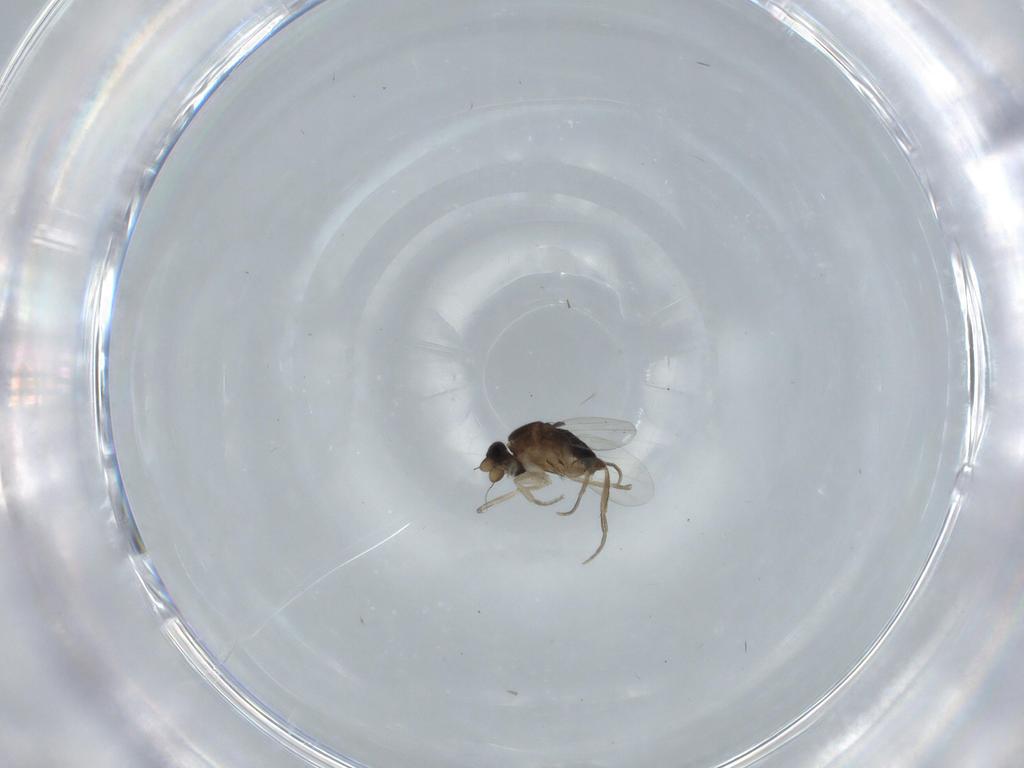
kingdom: Animalia
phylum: Arthropoda
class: Insecta
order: Diptera
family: Phoridae
